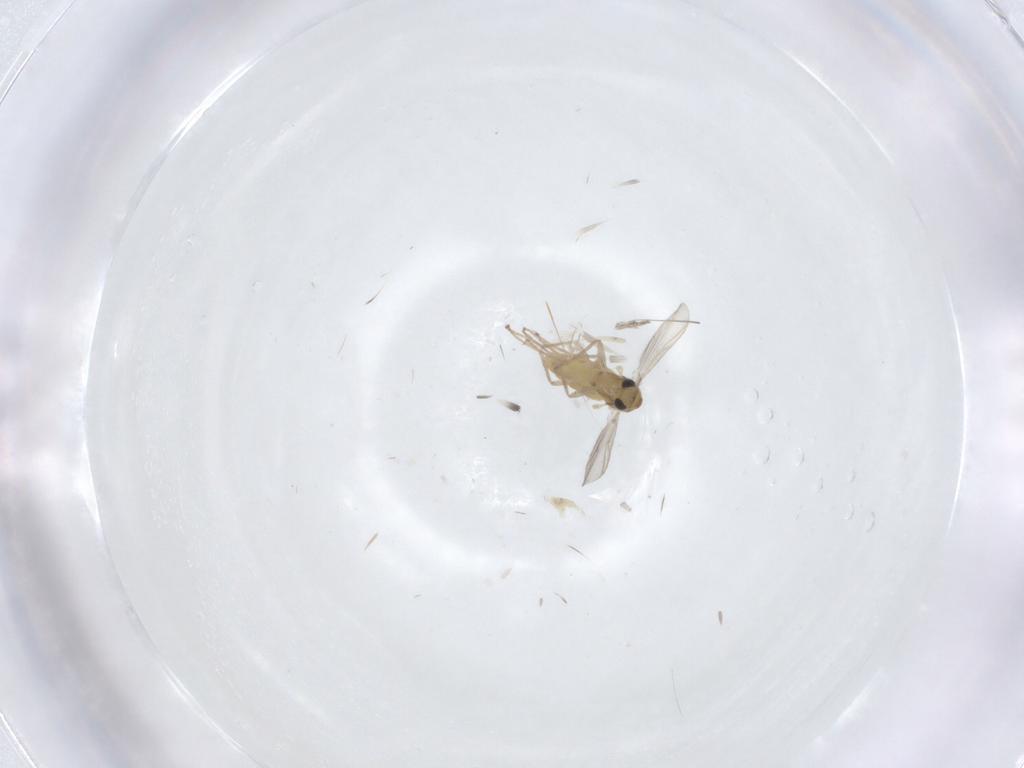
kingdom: Animalia
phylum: Arthropoda
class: Insecta
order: Diptera
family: Chironomidae
